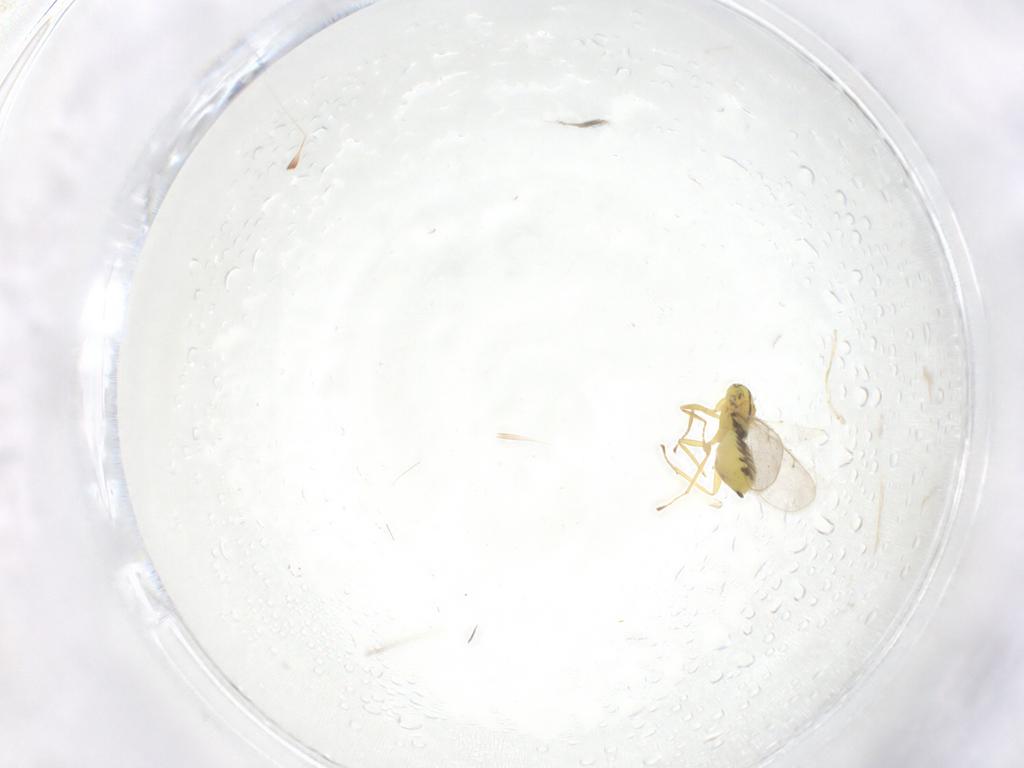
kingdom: Animalia
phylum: Arthropoda
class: Insecta
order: Hymenoptera
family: Eulophidae
